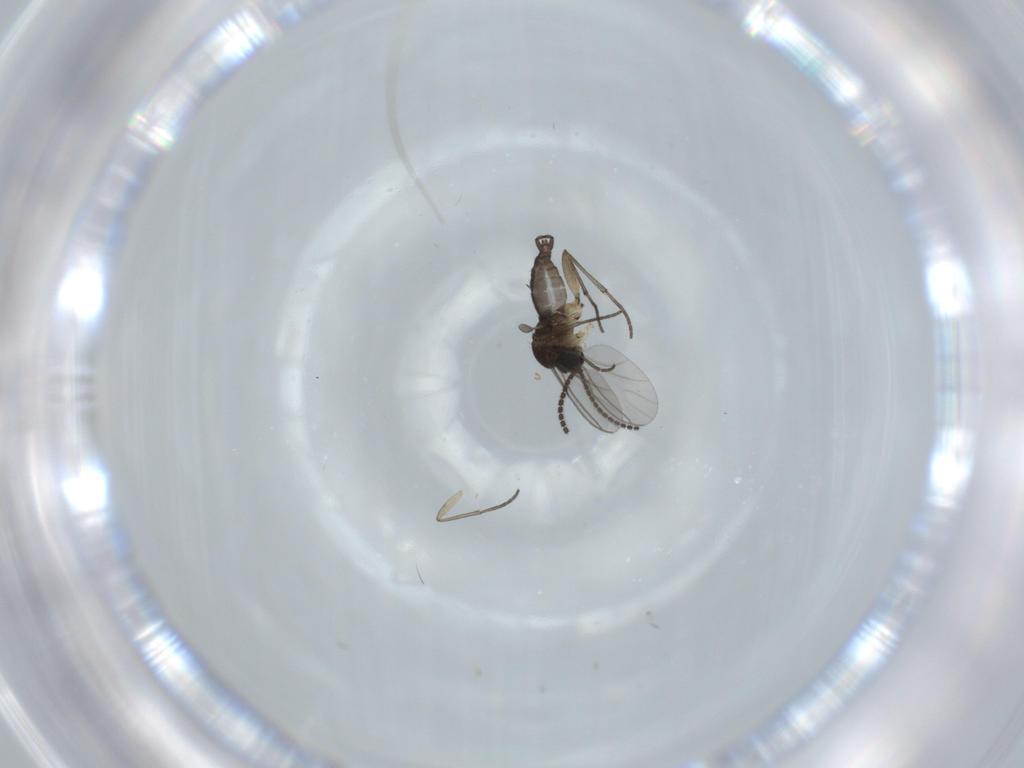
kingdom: Animalia
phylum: Arthropoda
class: Insecta
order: Diptera
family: Sciaridae
